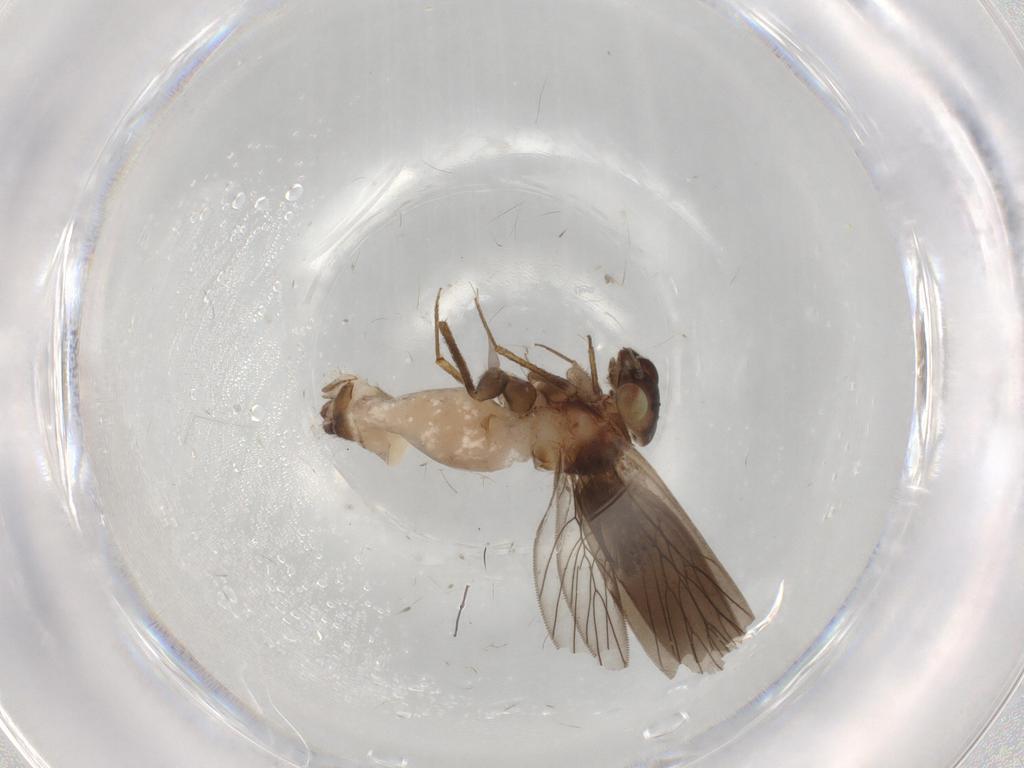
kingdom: Animalia
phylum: Arthropoda
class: Insecta
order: Psocodea
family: Lepidopsocidae
